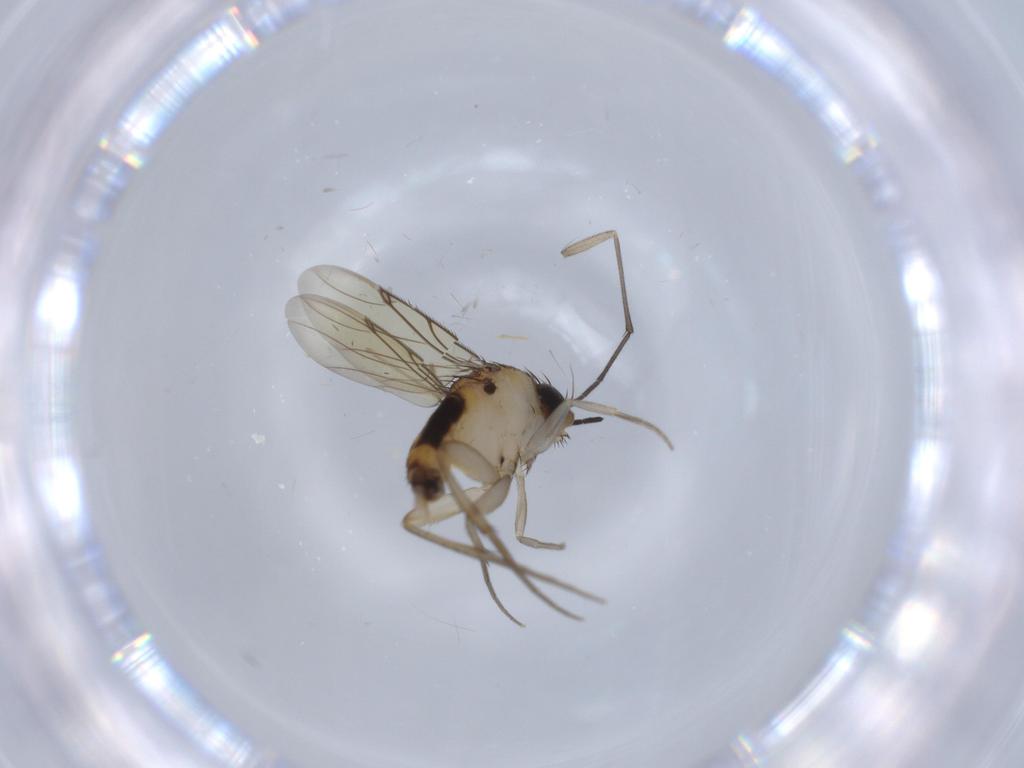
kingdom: Animalia
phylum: Arthropoda
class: Insecta
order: Diptera
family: Sciaridae
